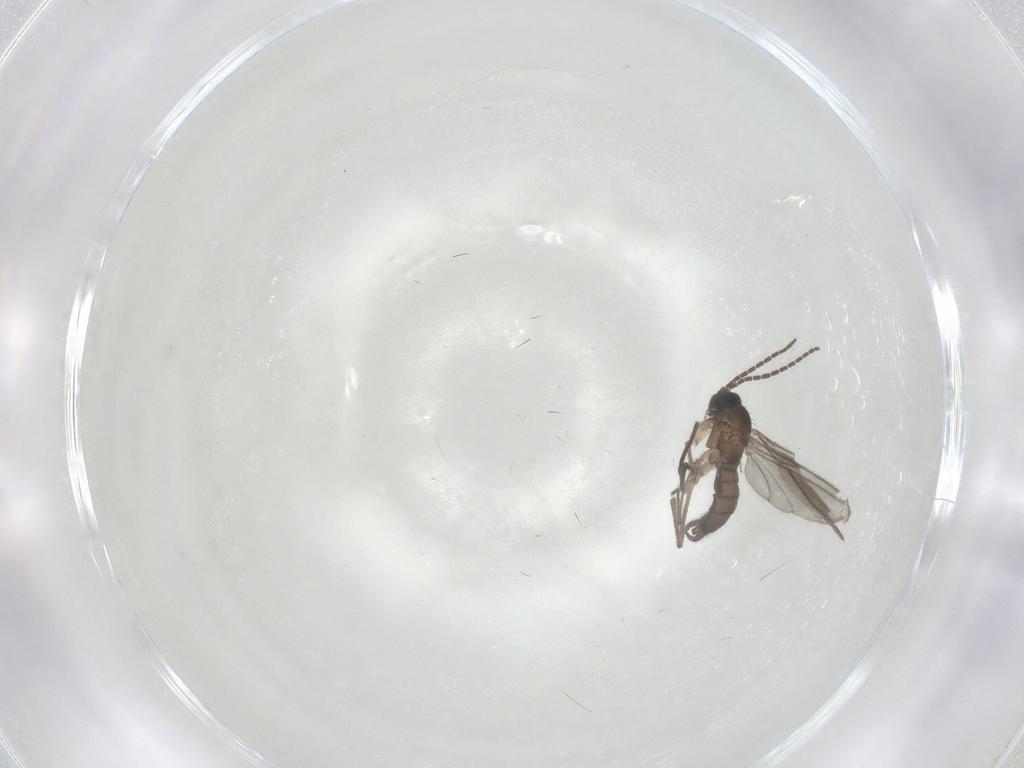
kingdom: Animalia
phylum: Arthropoda
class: Insecta
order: Diptera
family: Sciaridae
